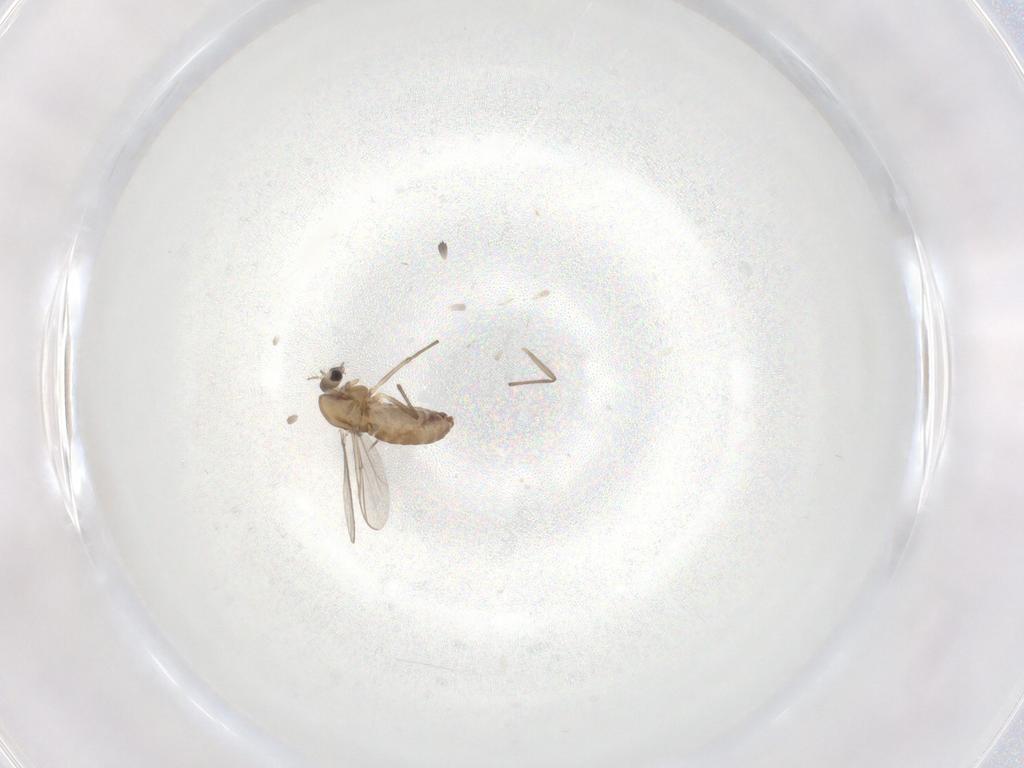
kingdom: Animalia
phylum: Arthropoda
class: Insecta
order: Diptera
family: Chironomidae
